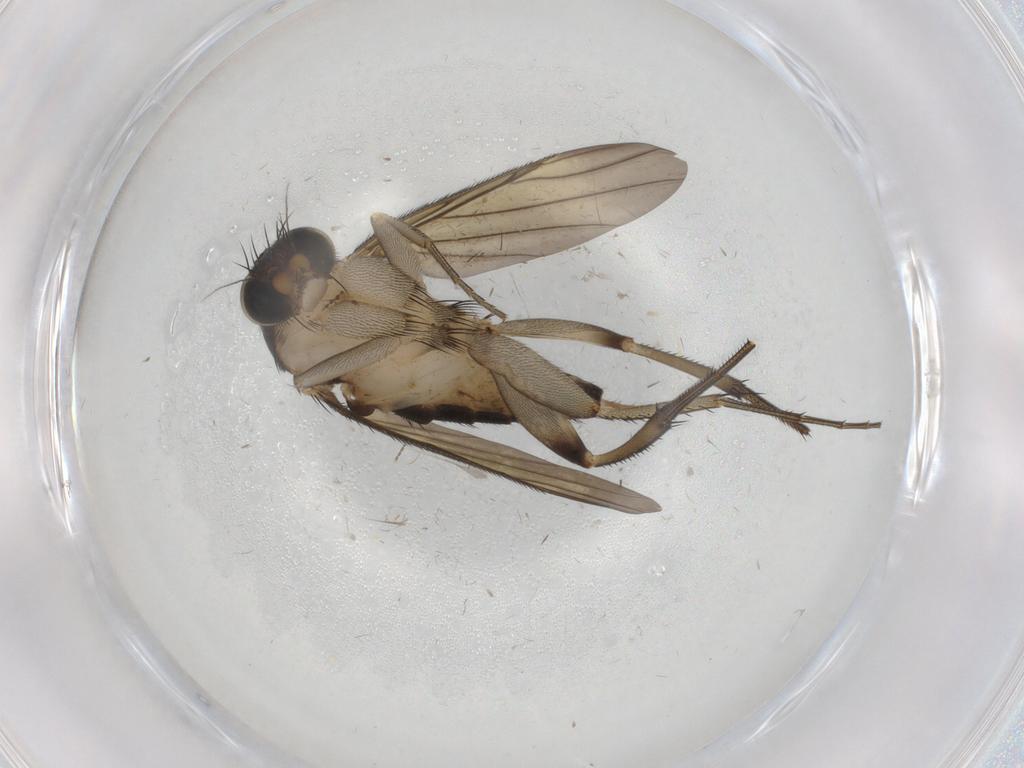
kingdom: Animalia
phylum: Arthropoda
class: Insecta
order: Diptera
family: Phoridae
